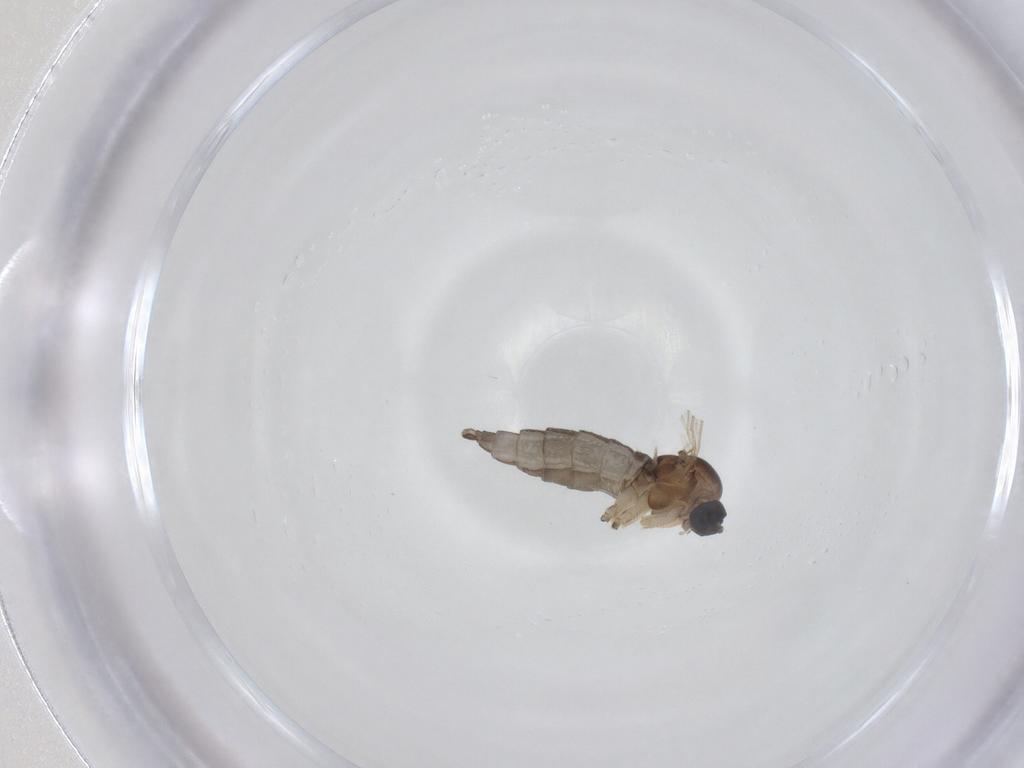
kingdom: Animalia
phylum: Arthropoda
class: Insecta
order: Diptera
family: Sciaridae
